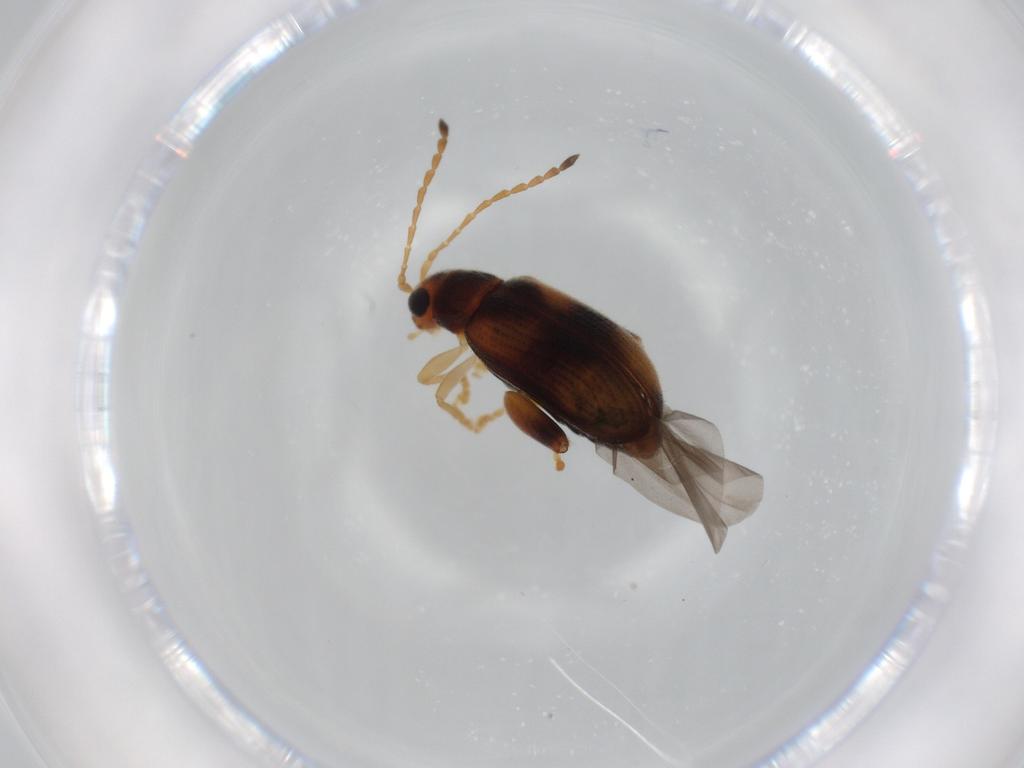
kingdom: Animalia
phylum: Arthropoda
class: Insecta
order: Coleoptera
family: Chrysomelidae
